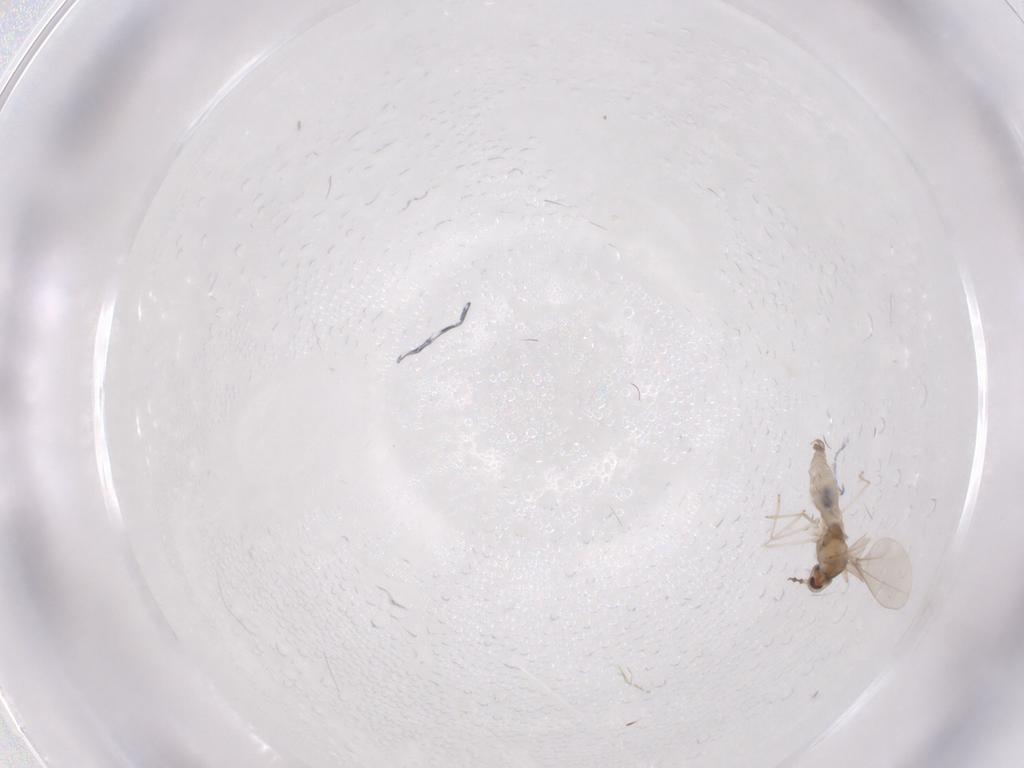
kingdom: Animalia
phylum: Arthropoda
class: Insecta
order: Diptera
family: Cecidomyiidae
